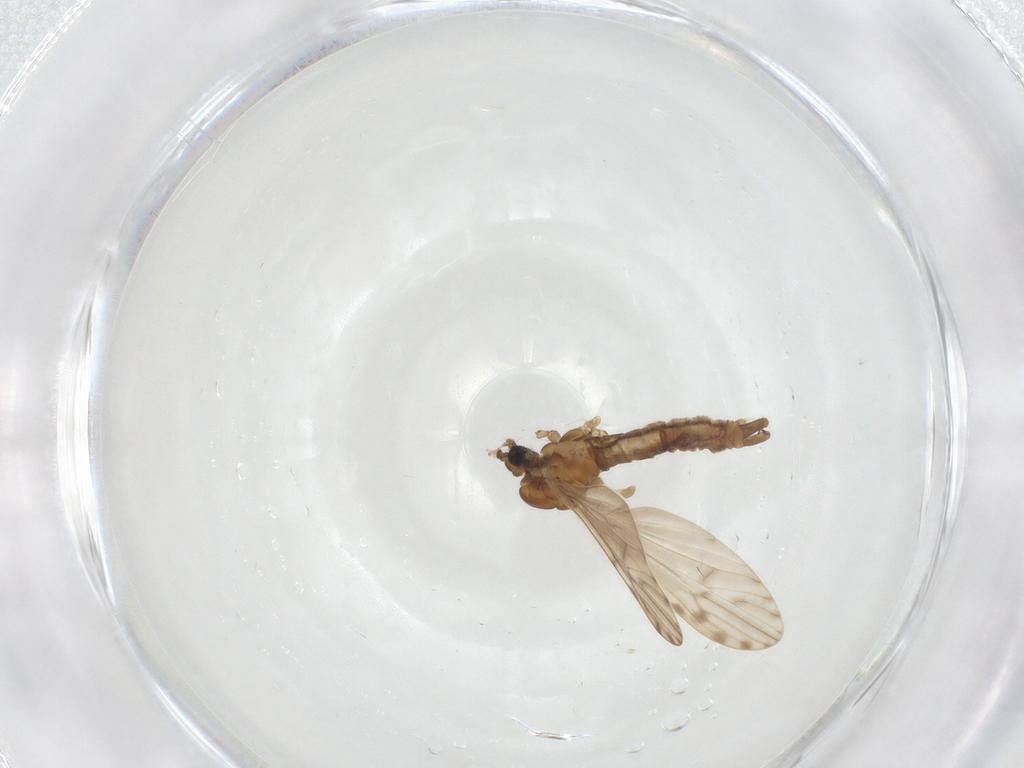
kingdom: Animalia
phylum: Arthropoda
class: Insecta
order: Diptera
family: Limoniidae
